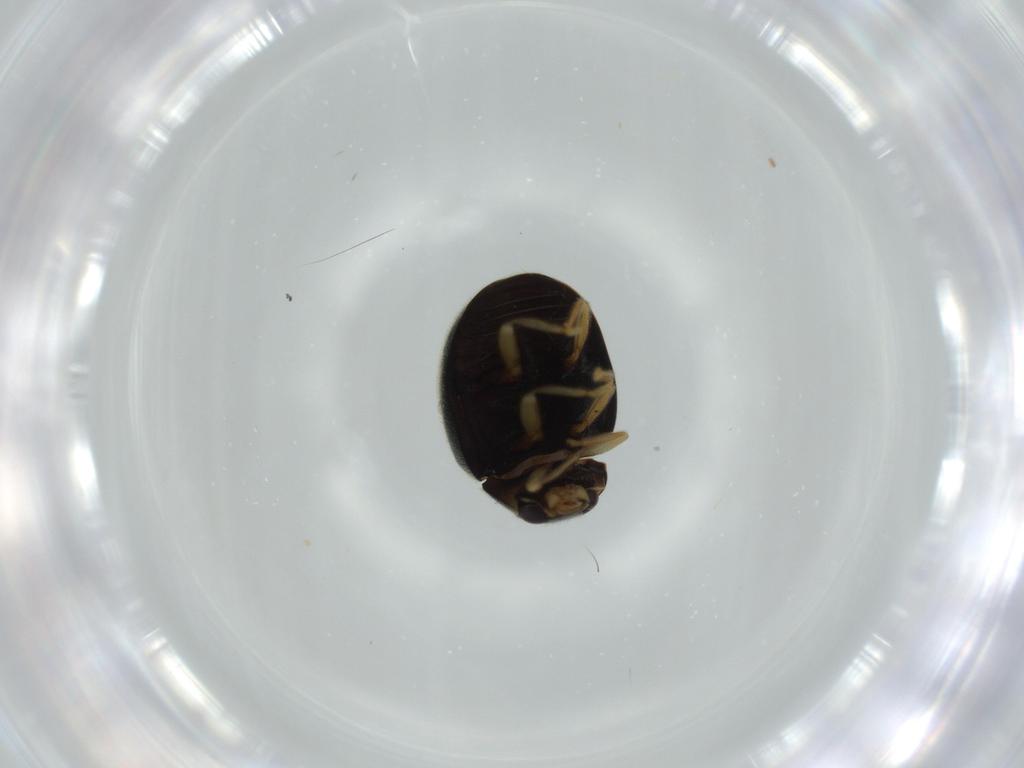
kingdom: Animalia
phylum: Arthropoda
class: Insecta
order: Coleoptera
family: Coccinellidae
